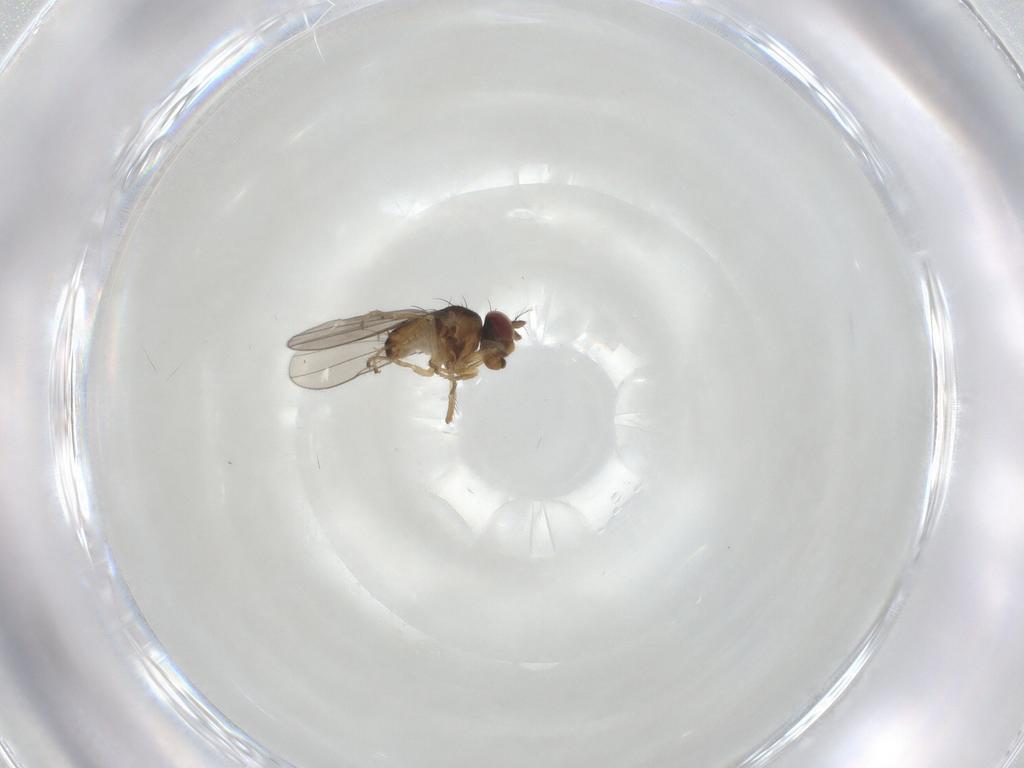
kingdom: Animalia
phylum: Arthropoda
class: Insecta
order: Diptera
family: Ephydridae
